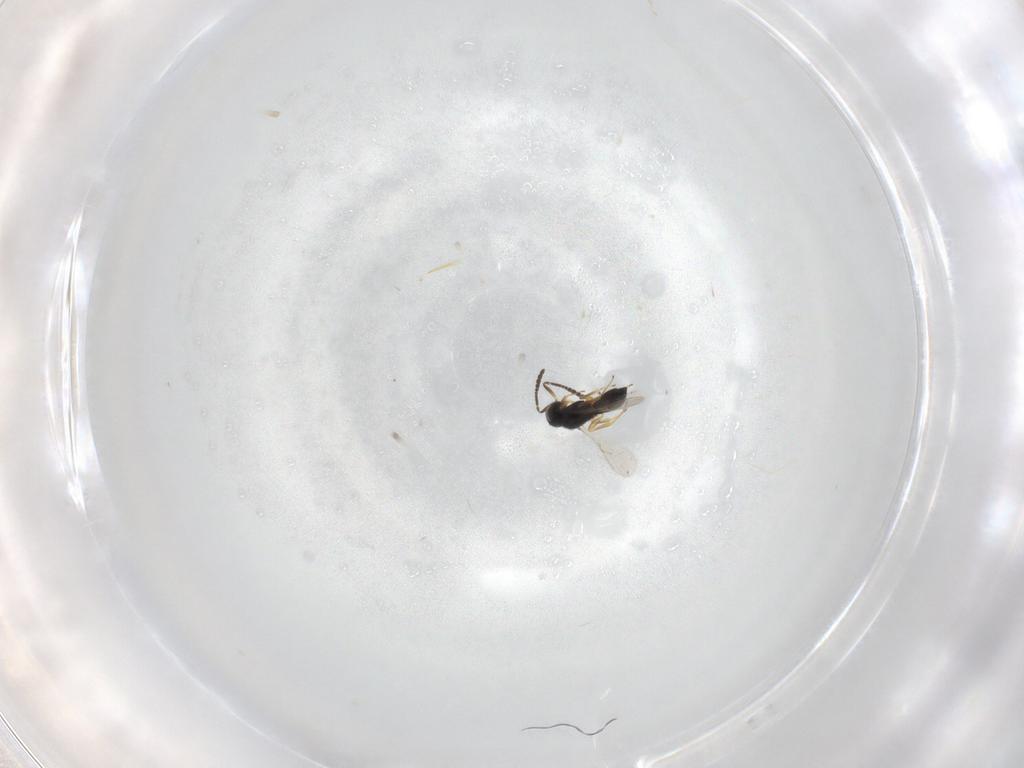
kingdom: Animalia
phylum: Arthropoda
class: Insecta
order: Hymenoptera
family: Scelionidae
